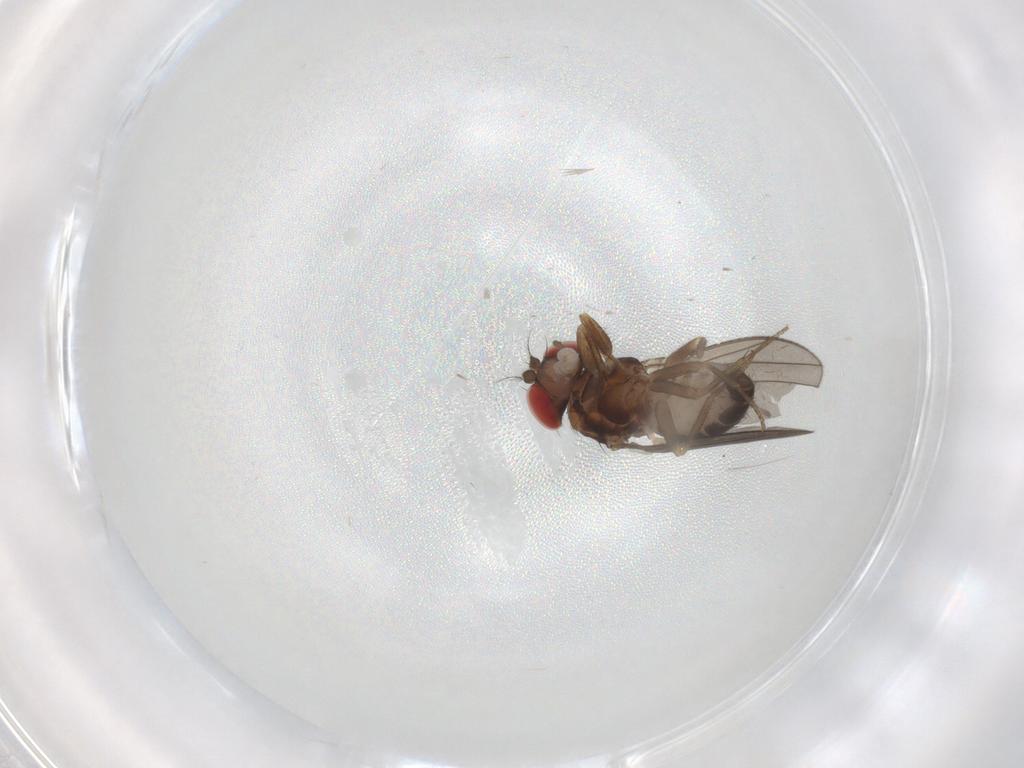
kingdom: Animalia
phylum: Arthropoda
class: Insecta
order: Diptera
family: Drosophilidae
